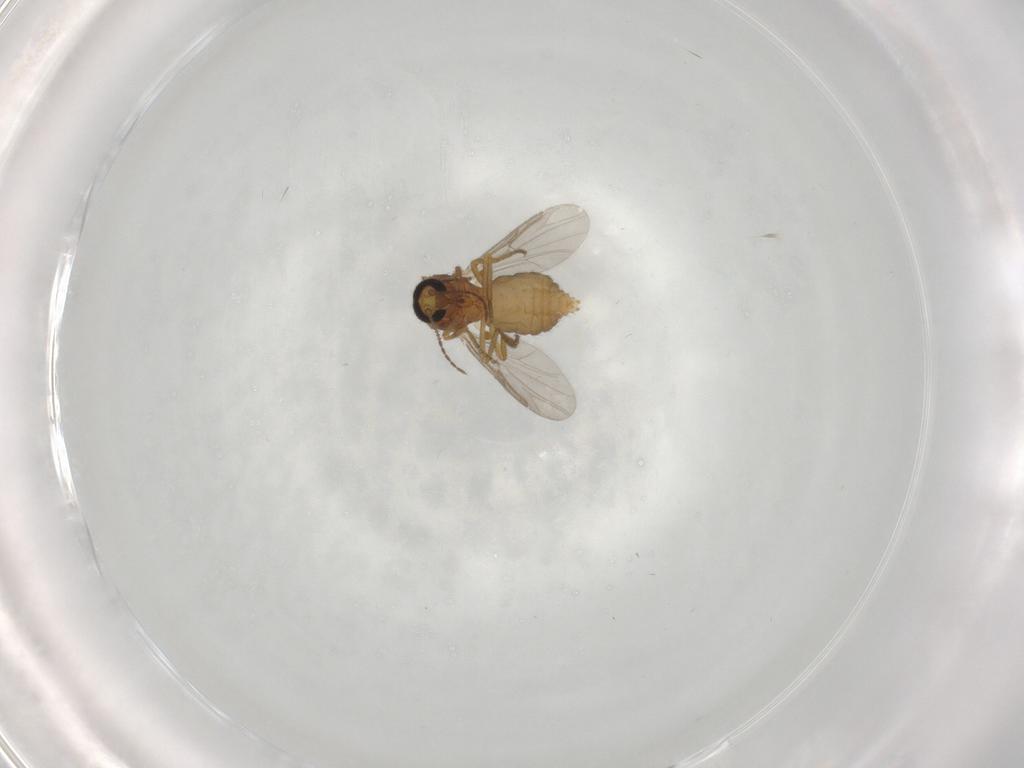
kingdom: Animalia
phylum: Arthropoda
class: Insecta
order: Diptera
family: Ceratopogonidae
